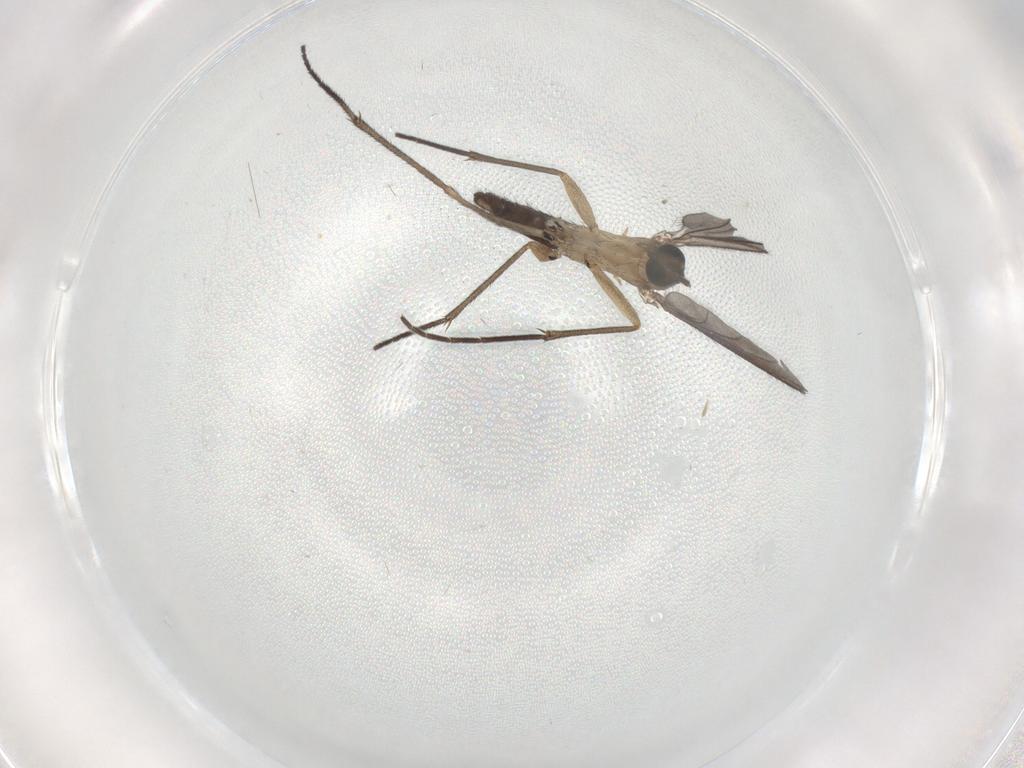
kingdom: Animalia
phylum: Arthropoda
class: Insecta
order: Diptera
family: Sciaridae
